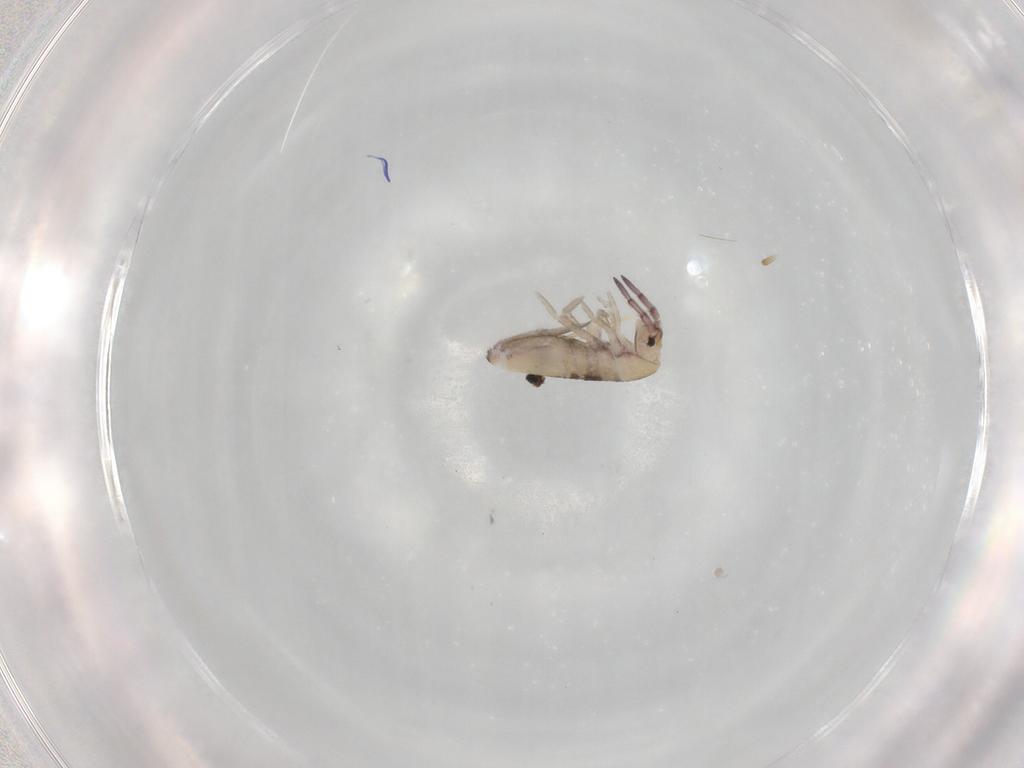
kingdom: Animalia
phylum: Arthropoda
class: Collembola
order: Entomobryomorpha
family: Entomobryidae
